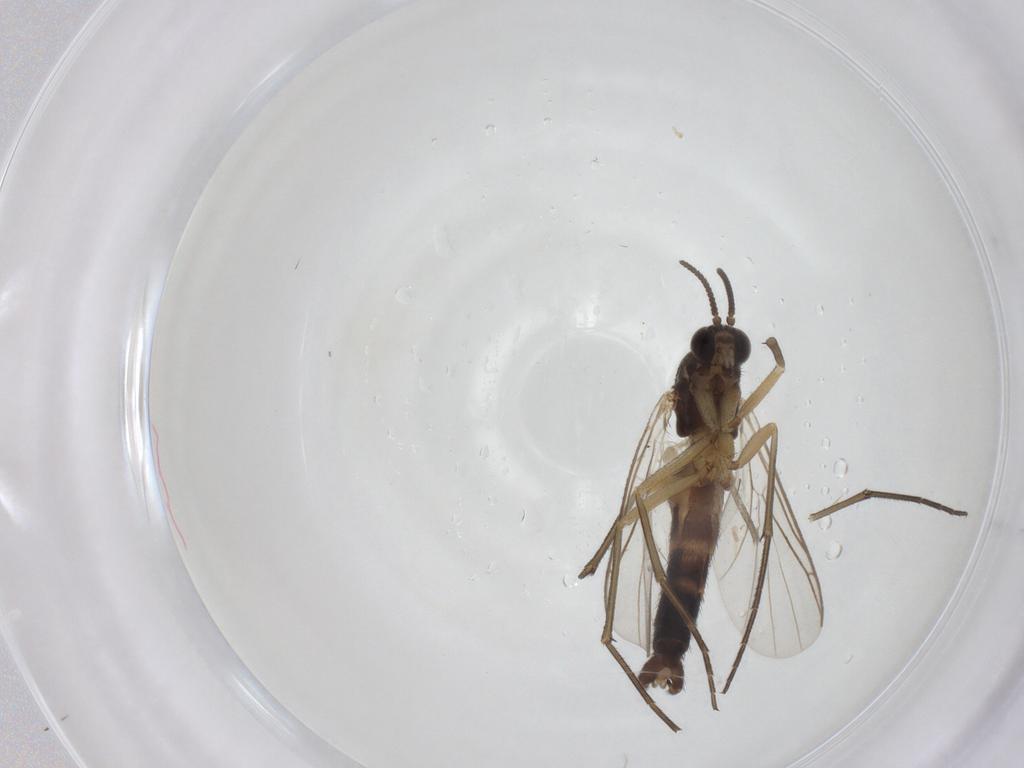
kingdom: Animalia
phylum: Arthropoda
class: Insecta
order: Diptera
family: Keroplatidae
